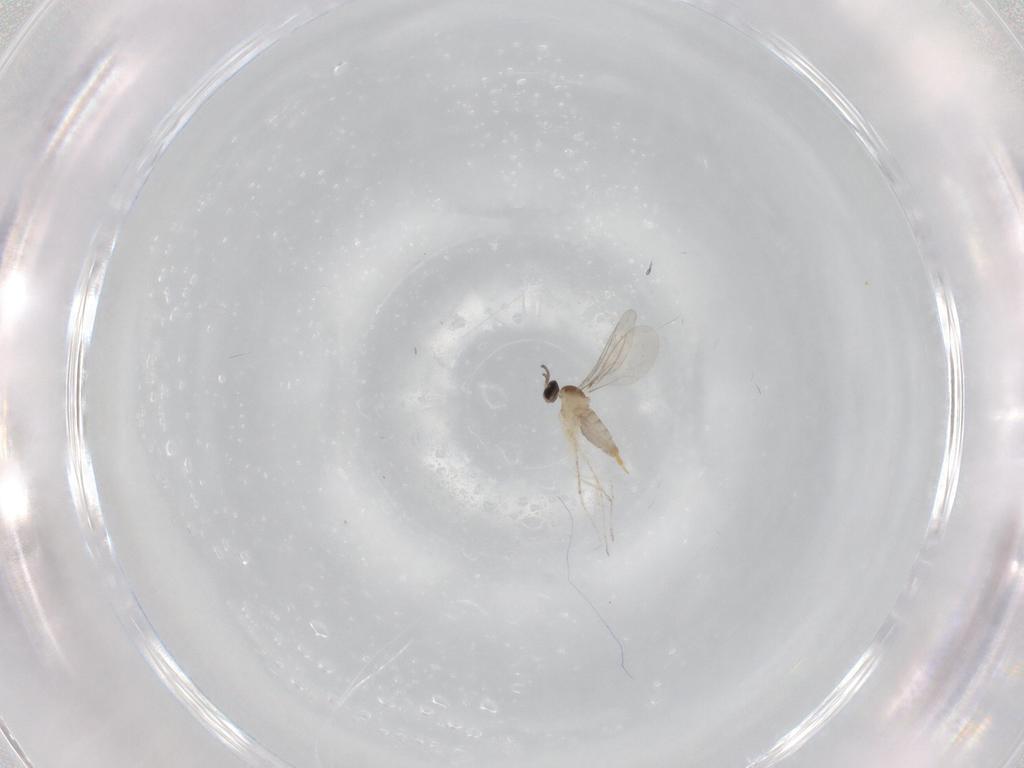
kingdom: Animalia
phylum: Arthropoda
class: Insecta
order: Diptera
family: Cecidomyiidae
